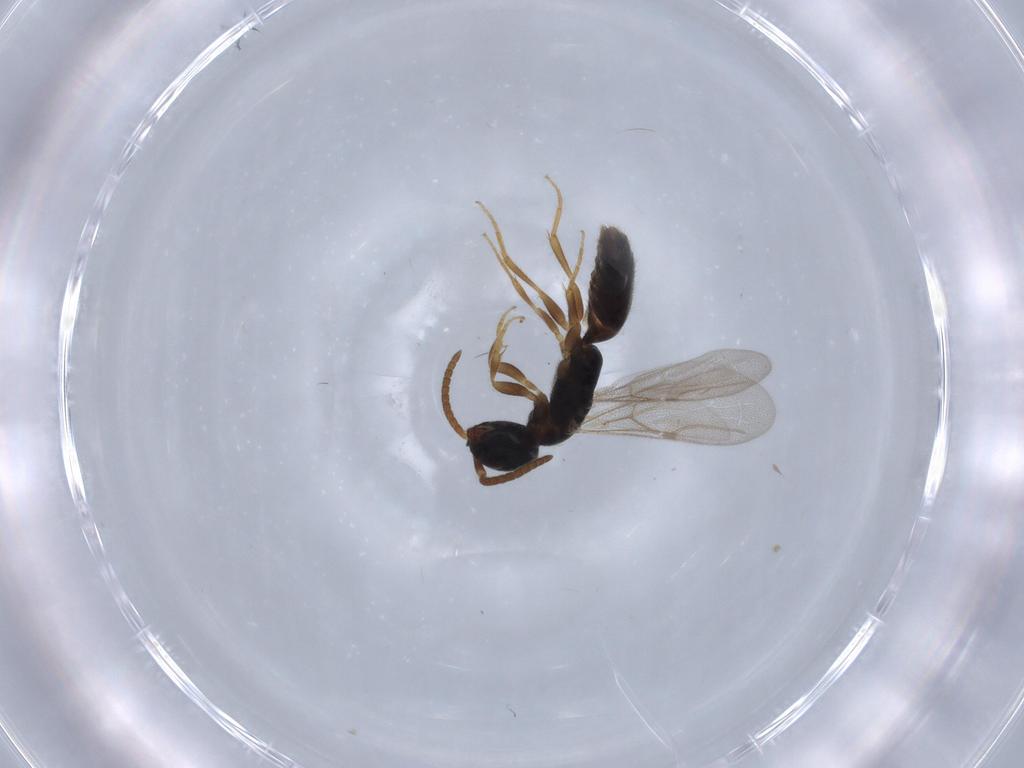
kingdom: Animalia
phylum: Arthropoda
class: Insecta
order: Hymenoptera
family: Bethylidae
